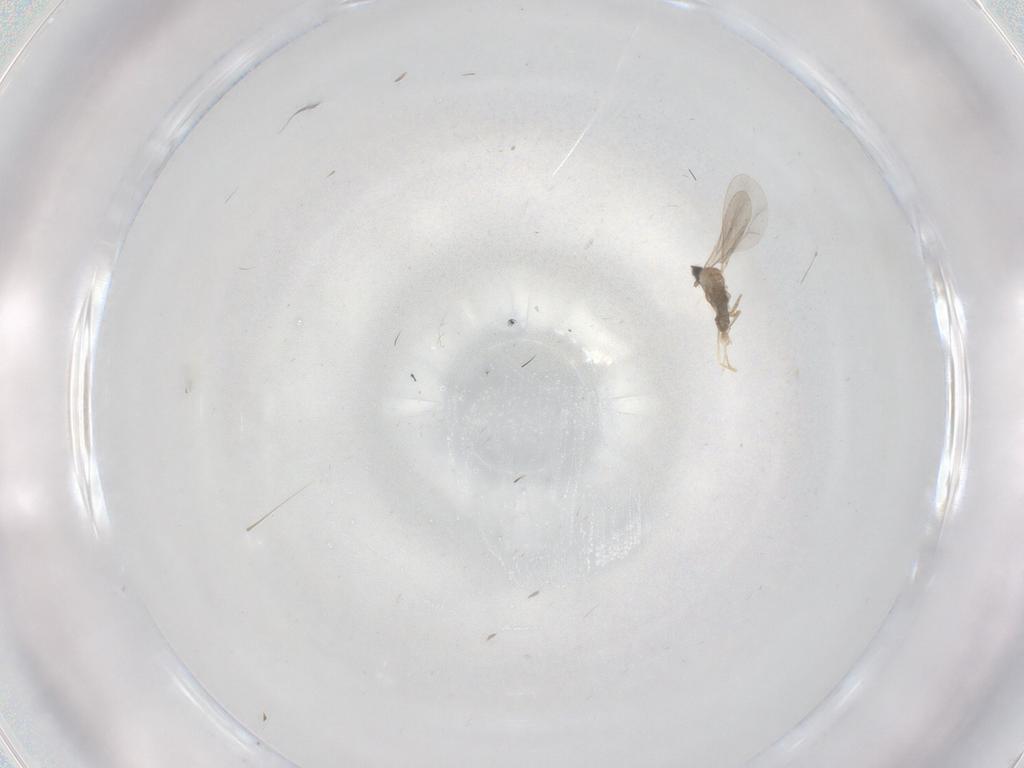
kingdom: Animalia
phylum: Arthropoda
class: Insecta
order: Diptera
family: Phoridae
